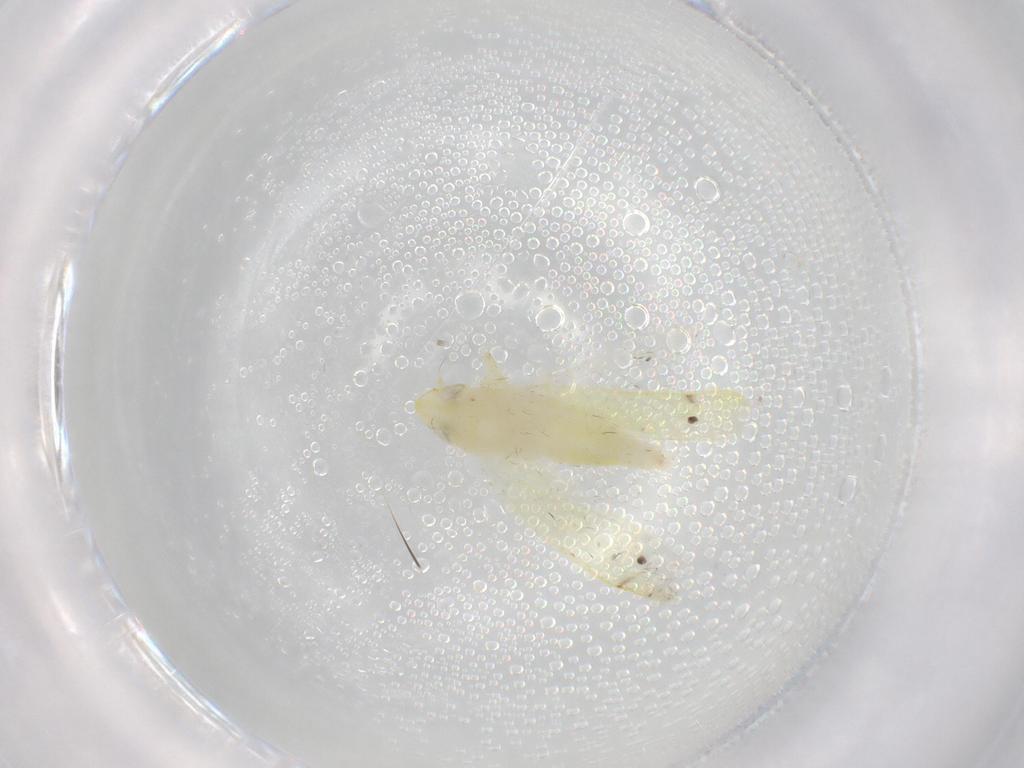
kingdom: Animalia
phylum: Arthropoda
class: Insecta
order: Hemiptera
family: Cicadellidae
